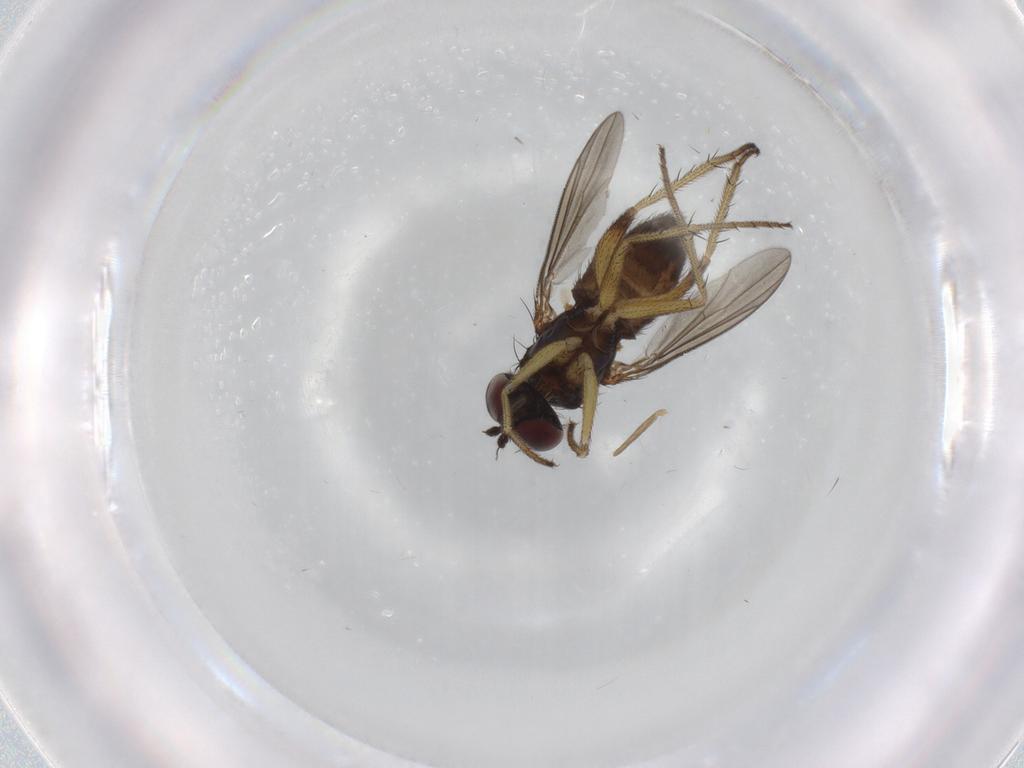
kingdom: Animalia
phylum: Arthropoda
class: Insecta
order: Diptera
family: Dolichopodidae
